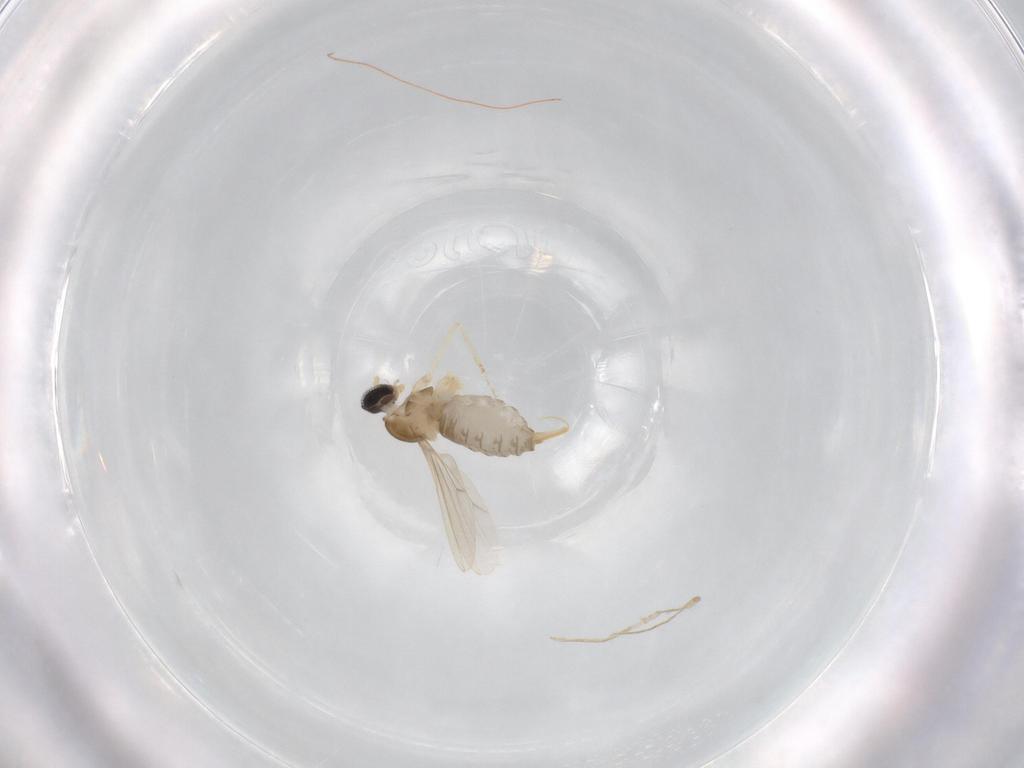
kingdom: Animalia
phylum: Arthropoda
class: Insecta
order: Diptera
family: Cecidomyiidae
